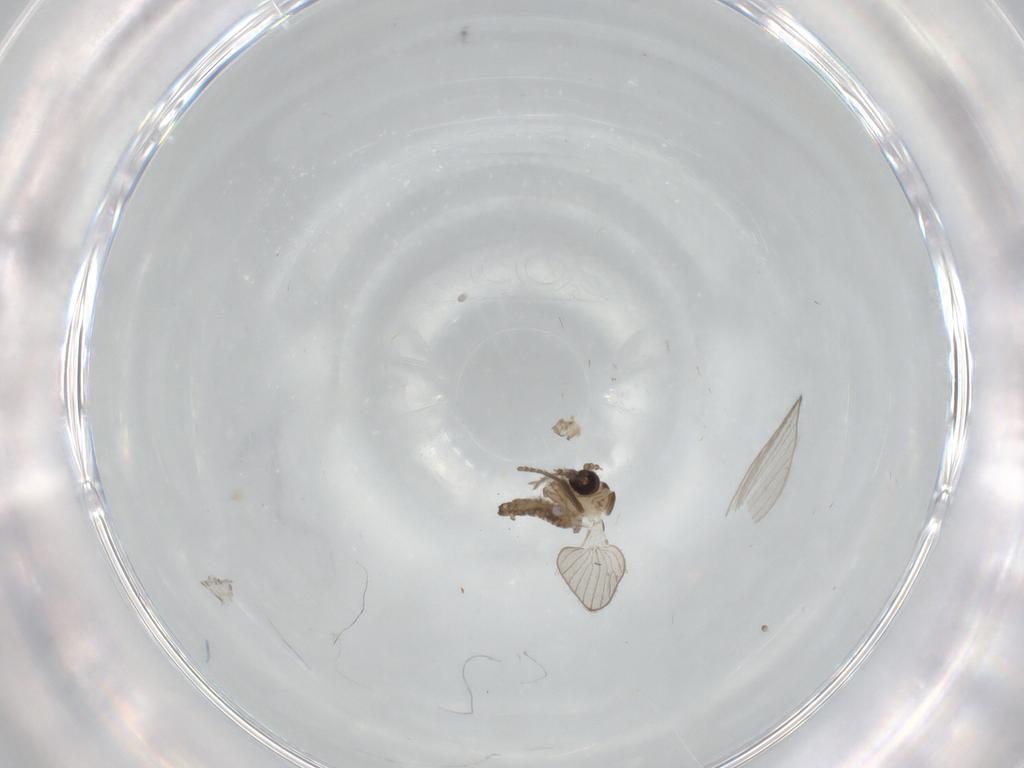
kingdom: Animalia
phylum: Arthropoda
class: Insecta
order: Diptera
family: Psychodidae
